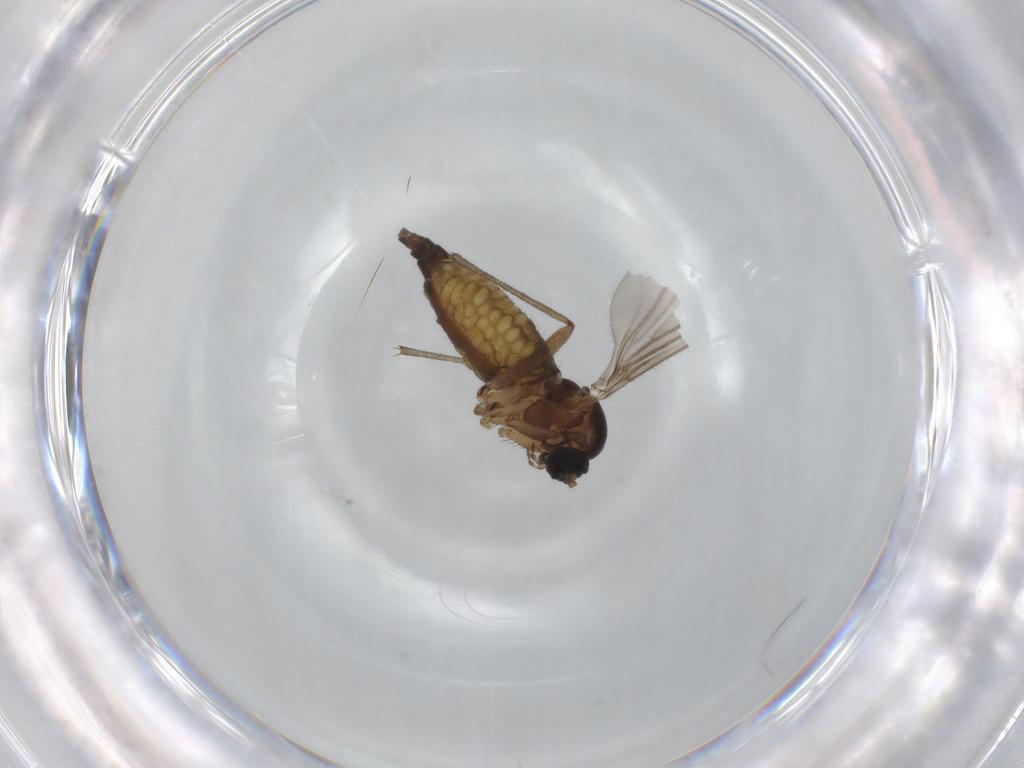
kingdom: Animalia
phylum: Arthropoda
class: Insecta
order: Diptera
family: Sciaridae
